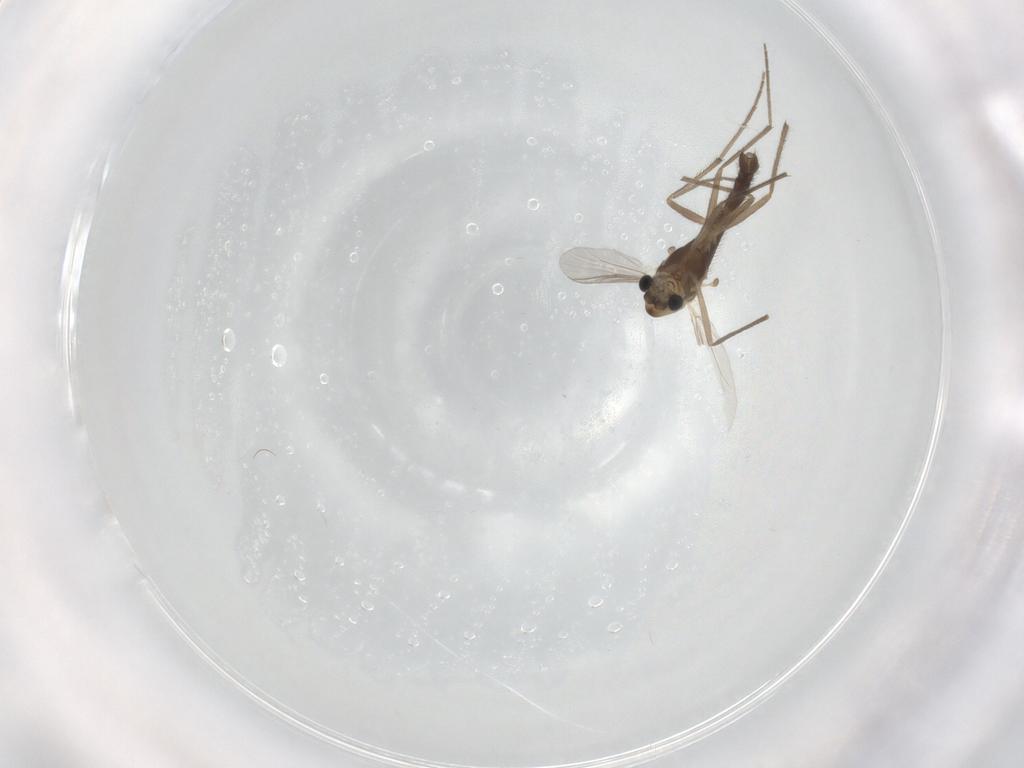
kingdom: Animalia
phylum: Arthropoda
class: Insecta
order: Diptera
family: Chironomidae
